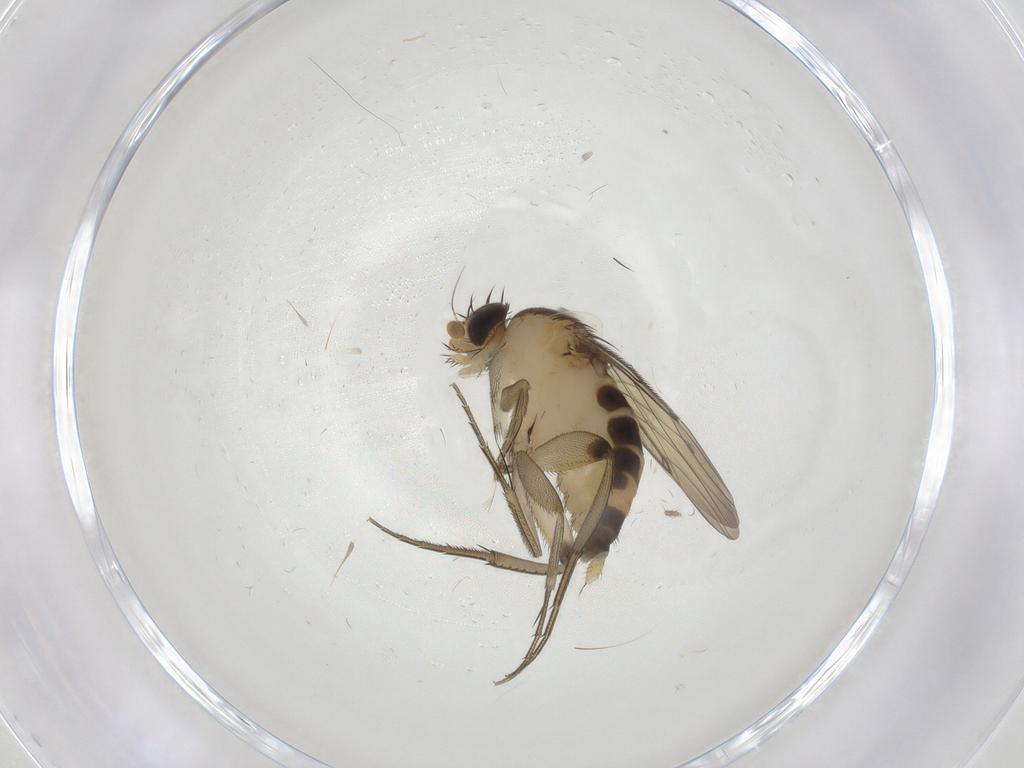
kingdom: Animalia
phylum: Arthropoda
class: Insecta
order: Diptera
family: Phoridae
